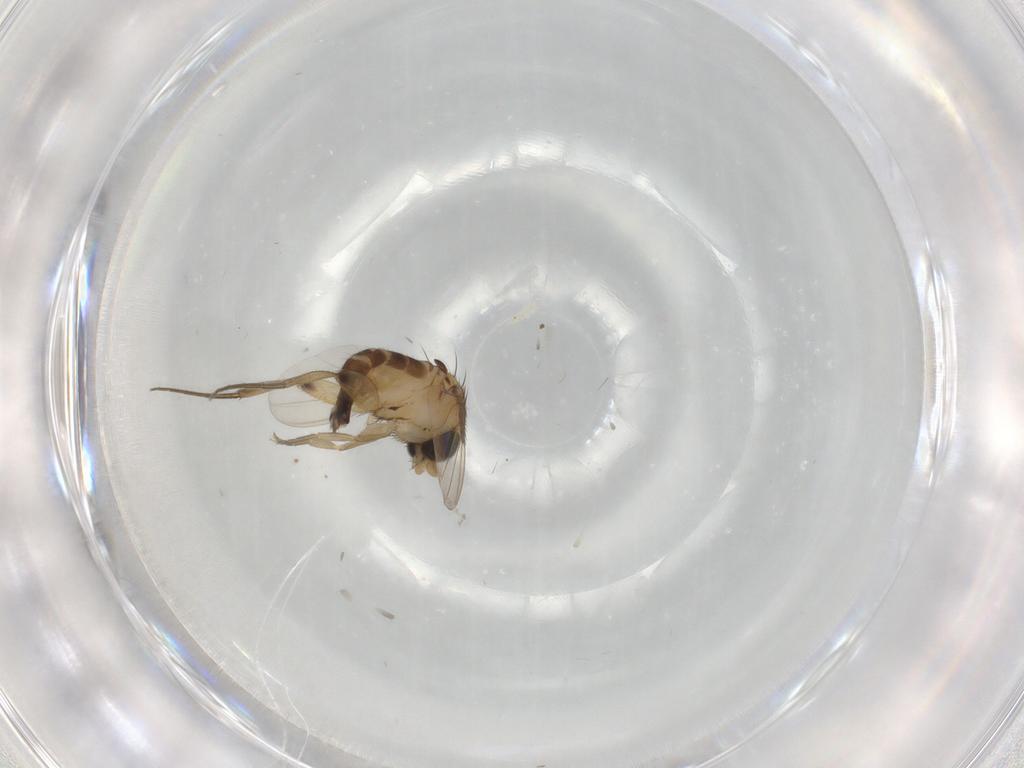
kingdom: Animalia
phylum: Arthropoda
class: Insecta
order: Diptera
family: Phoridae
